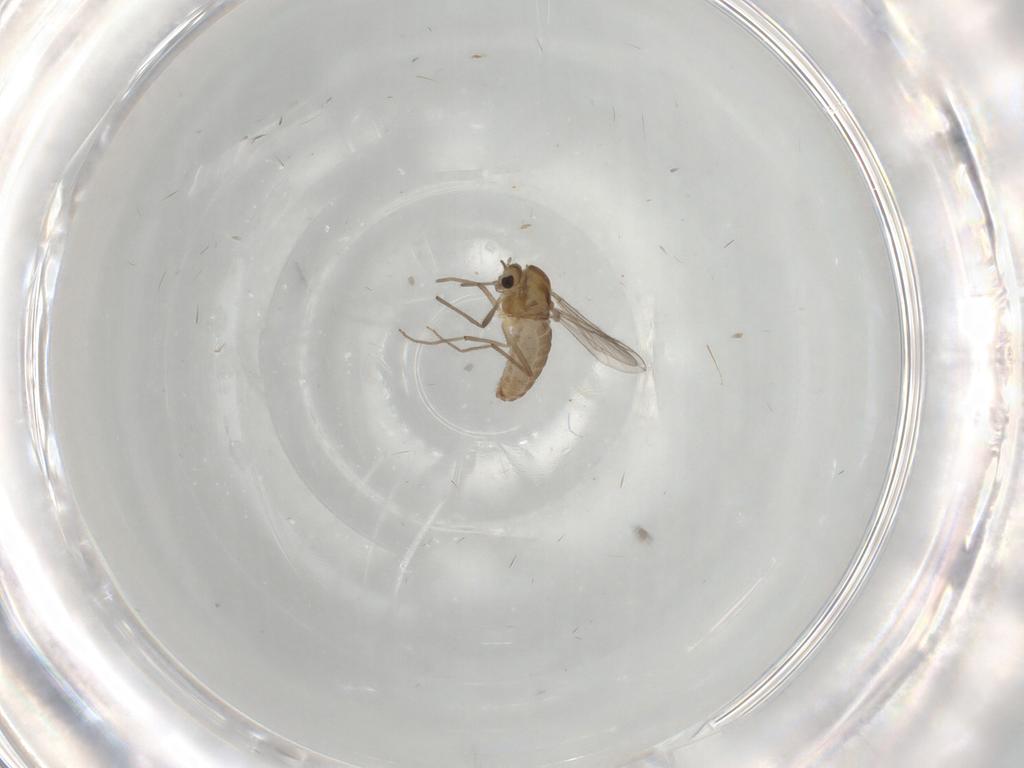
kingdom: Animalia
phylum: Arthropoda
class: Insecta
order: Diptera
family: Chironomidae
